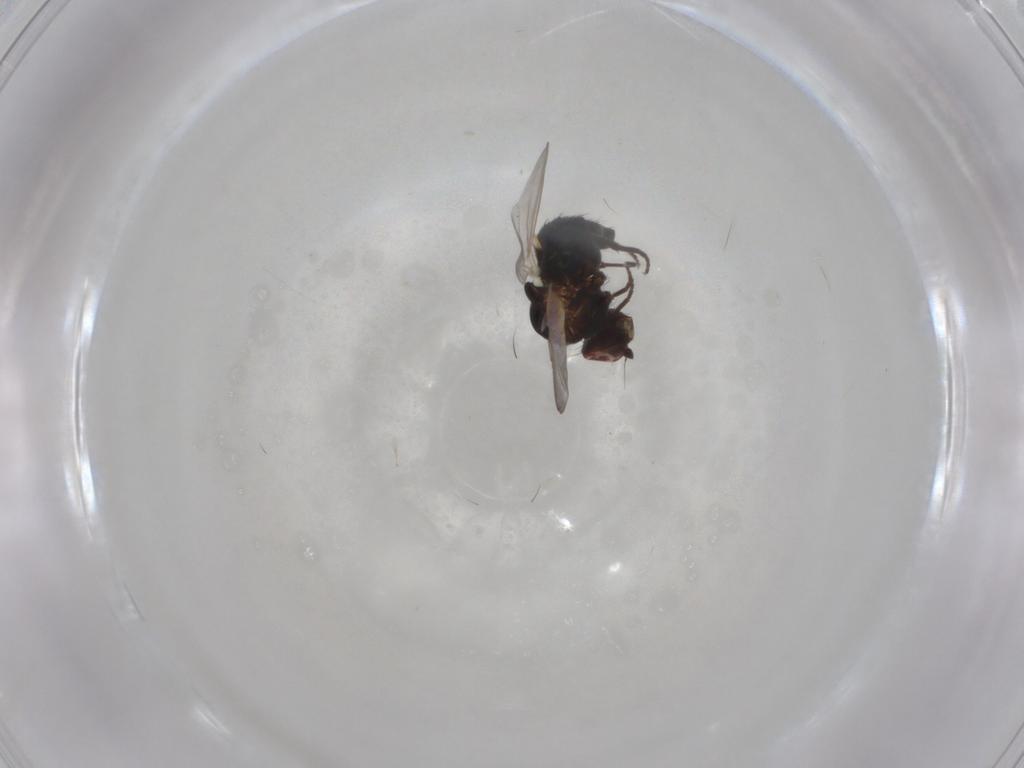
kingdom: Animalia
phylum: Arthropoda
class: Insecta
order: Diptera
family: Agromyzidae
